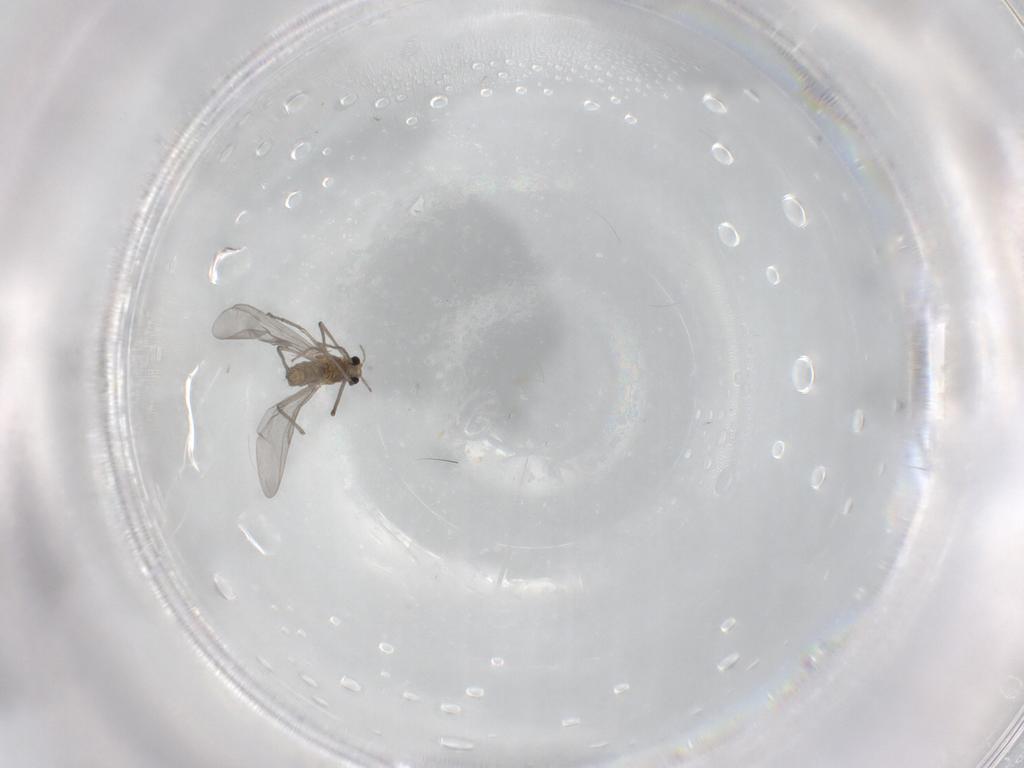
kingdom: Animalia
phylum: Arthropoda
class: Insecta
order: Diptera
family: Chironomidae
